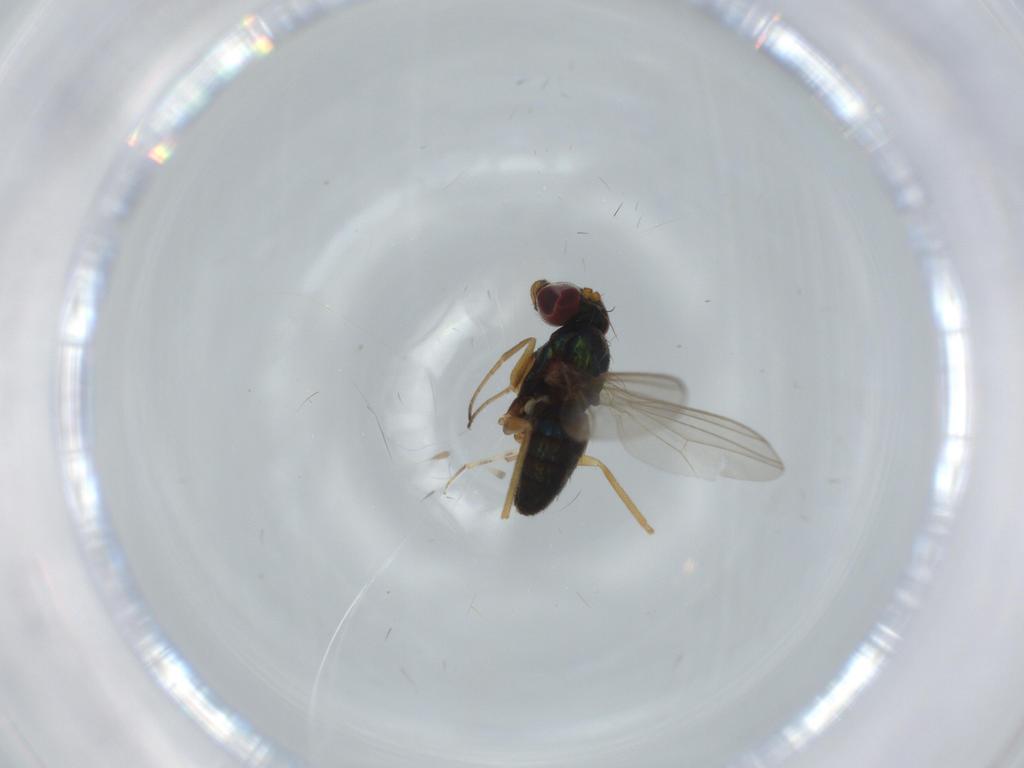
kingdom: Animalia
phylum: Arthropoda
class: Insecta
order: Diptera
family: Dolichopodidae
